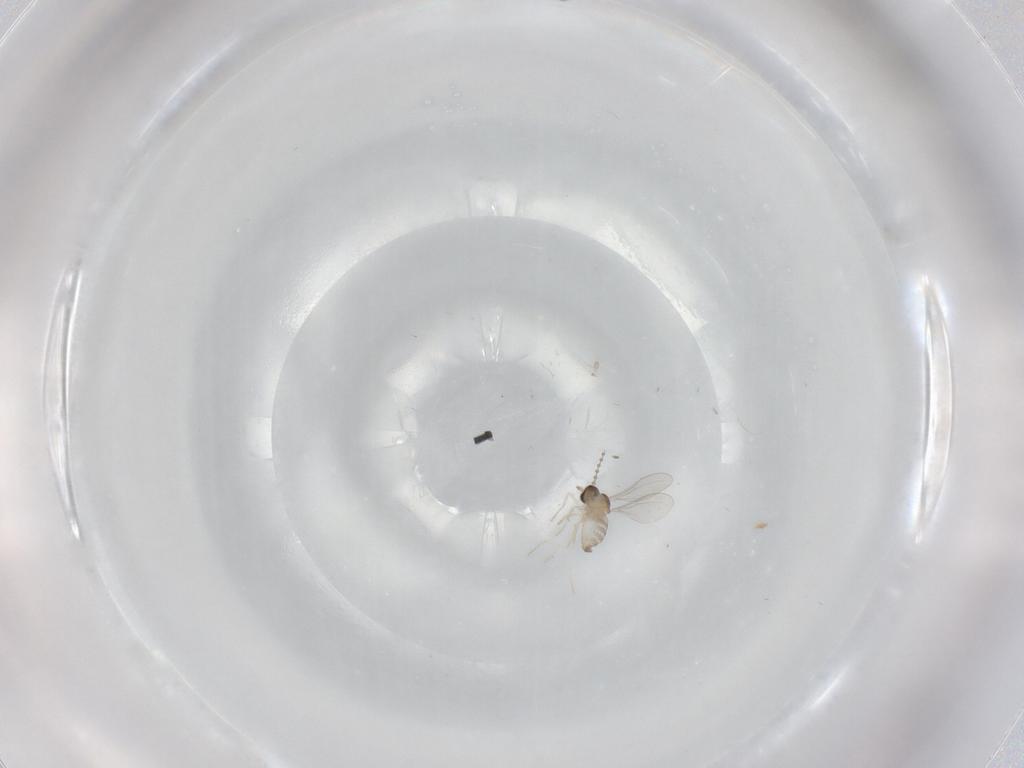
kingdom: Animalia
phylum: Arthropoda
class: Insecta
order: Diptera
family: Cecidomyiidae
